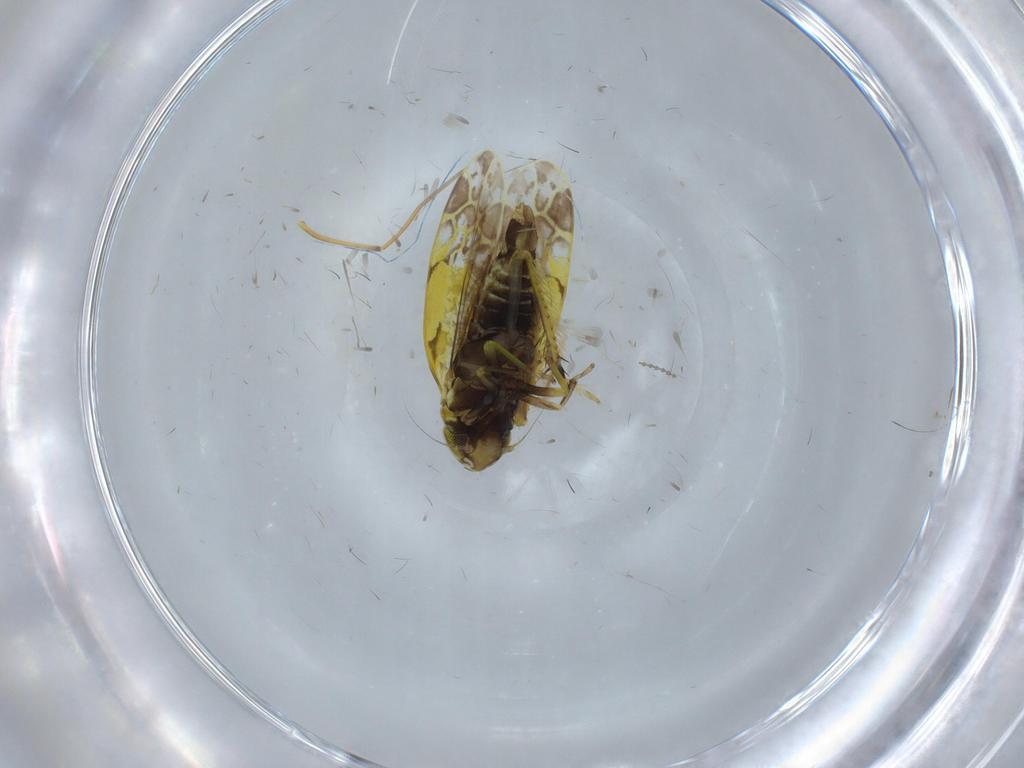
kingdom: Animalia
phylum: Arthropoda
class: Insecta
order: Hemiptera
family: Cicadellidae
